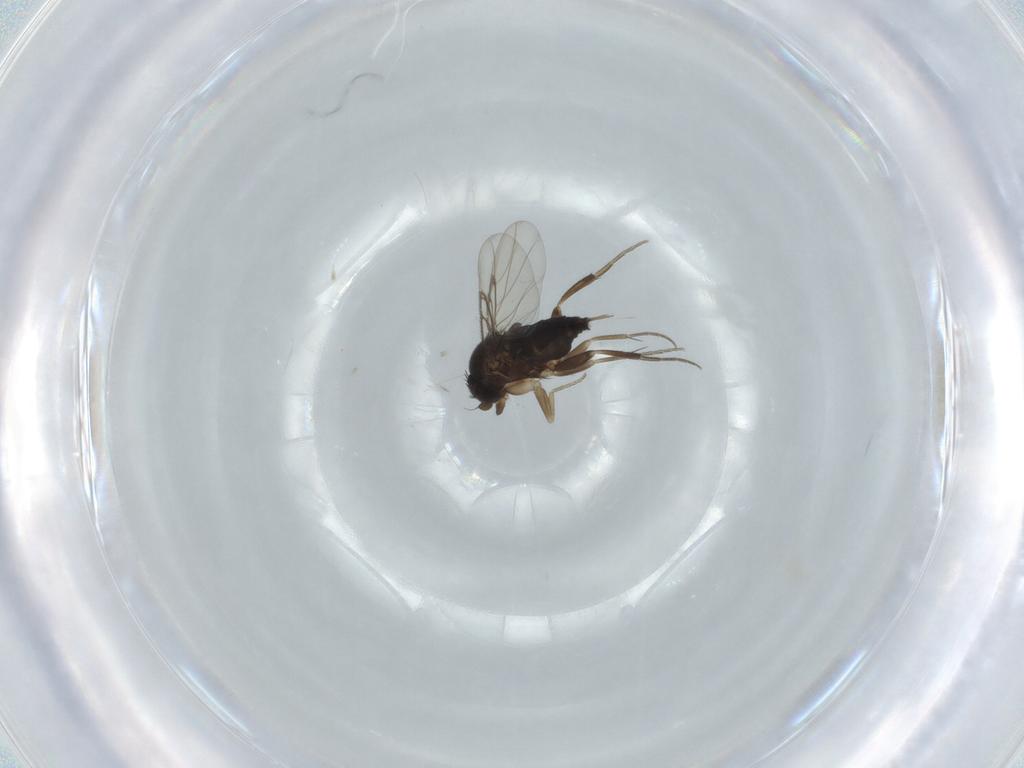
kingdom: Animalia
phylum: Arthropoda
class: Insecta
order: Diptera
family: Phoridae
